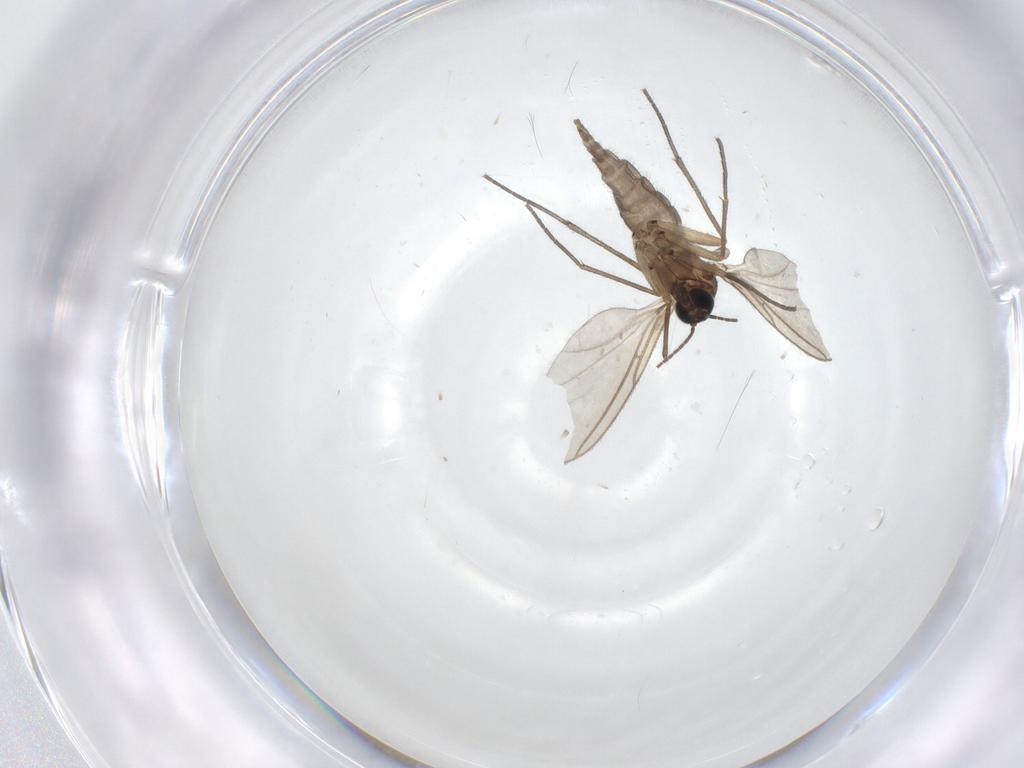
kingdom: Animalia
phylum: Arthropoda
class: Insecta
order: Diptera
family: Sciaridae
